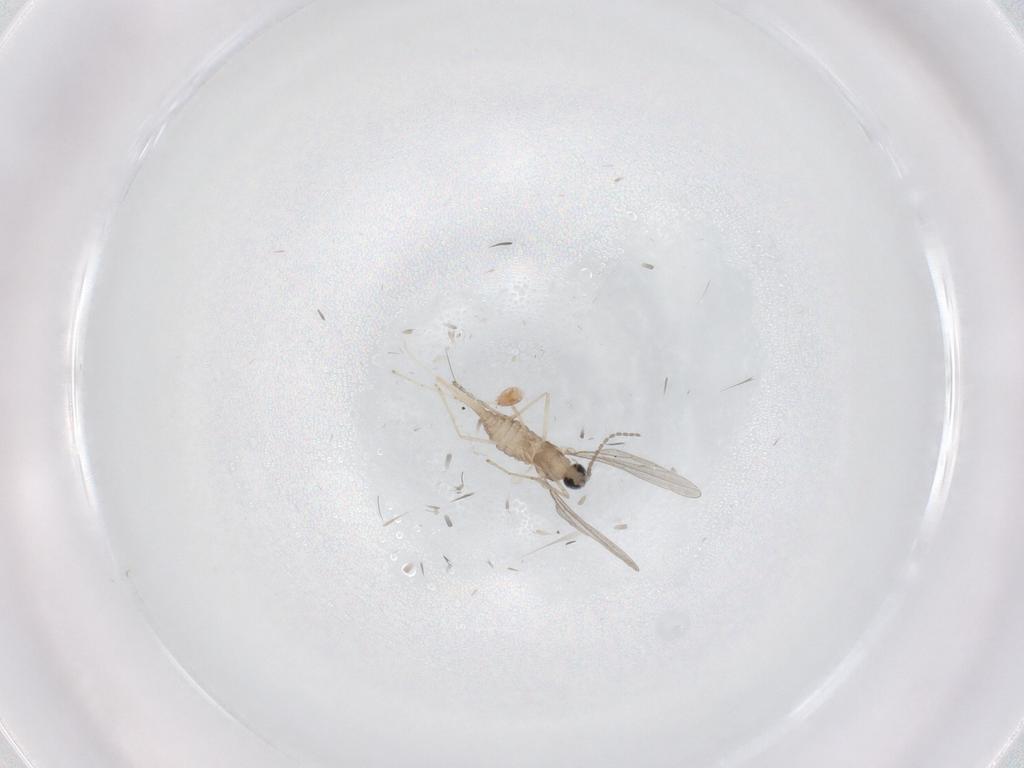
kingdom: Animalia
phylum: Arthropoda
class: Insecta
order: Diptera
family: Cecidomyiidae
